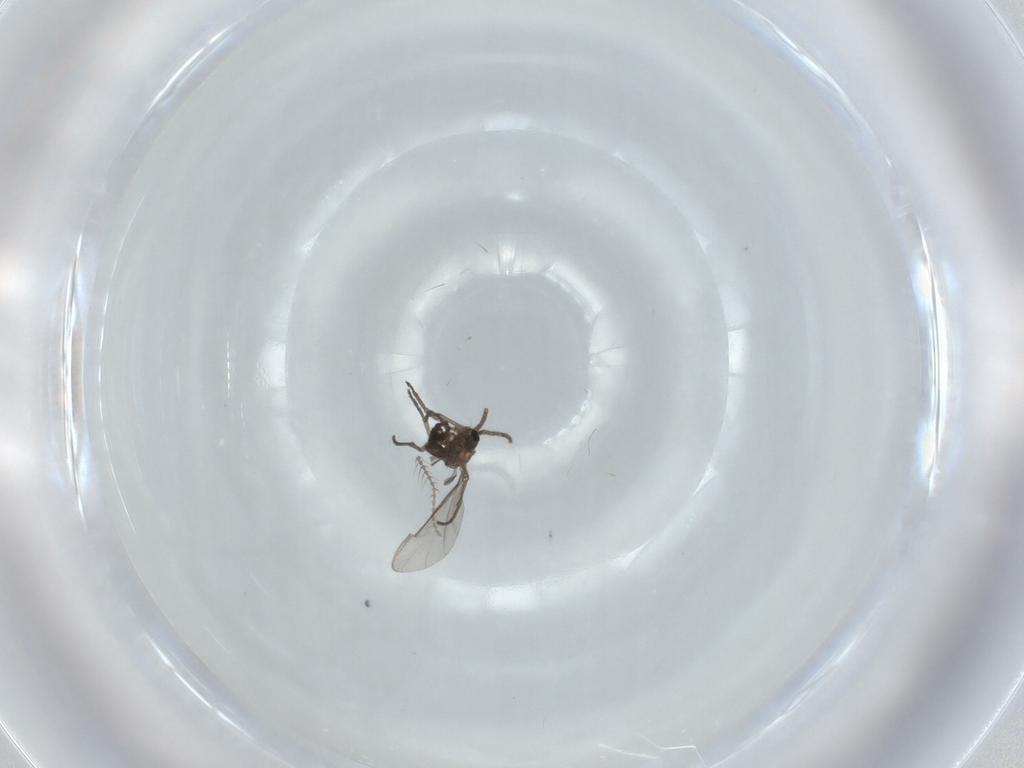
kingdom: Animalia
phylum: Arthropoda
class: Insecta
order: Diptera
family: Sciaridae
